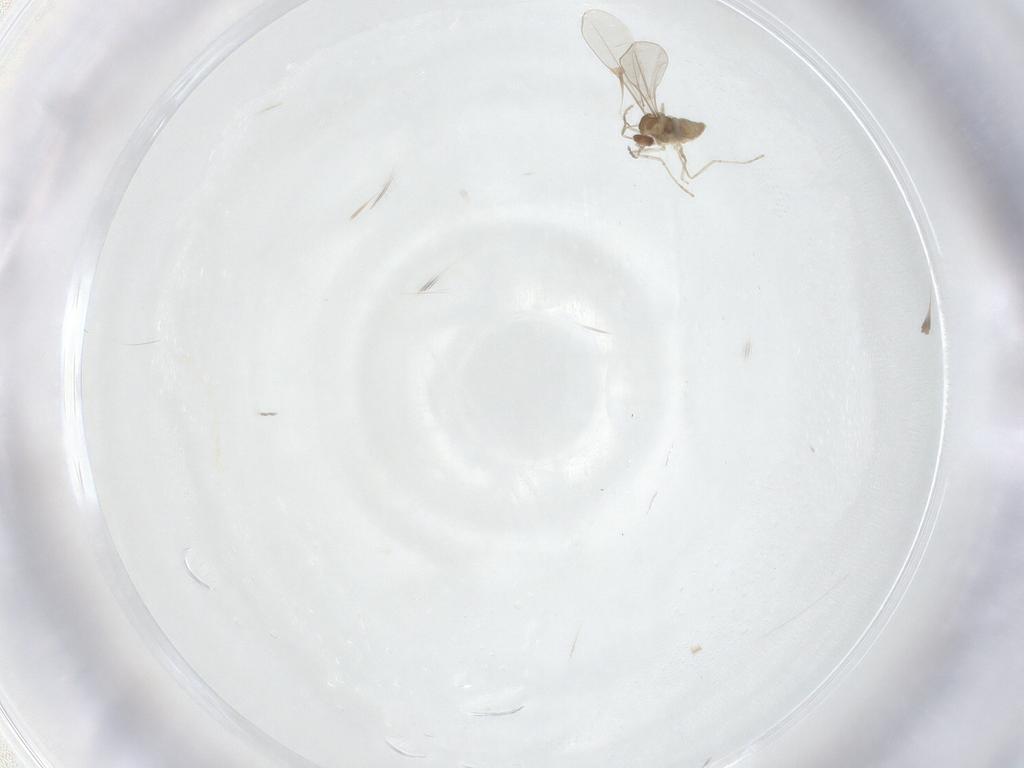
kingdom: Animalia
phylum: Arthropoda
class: Insecta
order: Diptera
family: Cecidomyiidae
